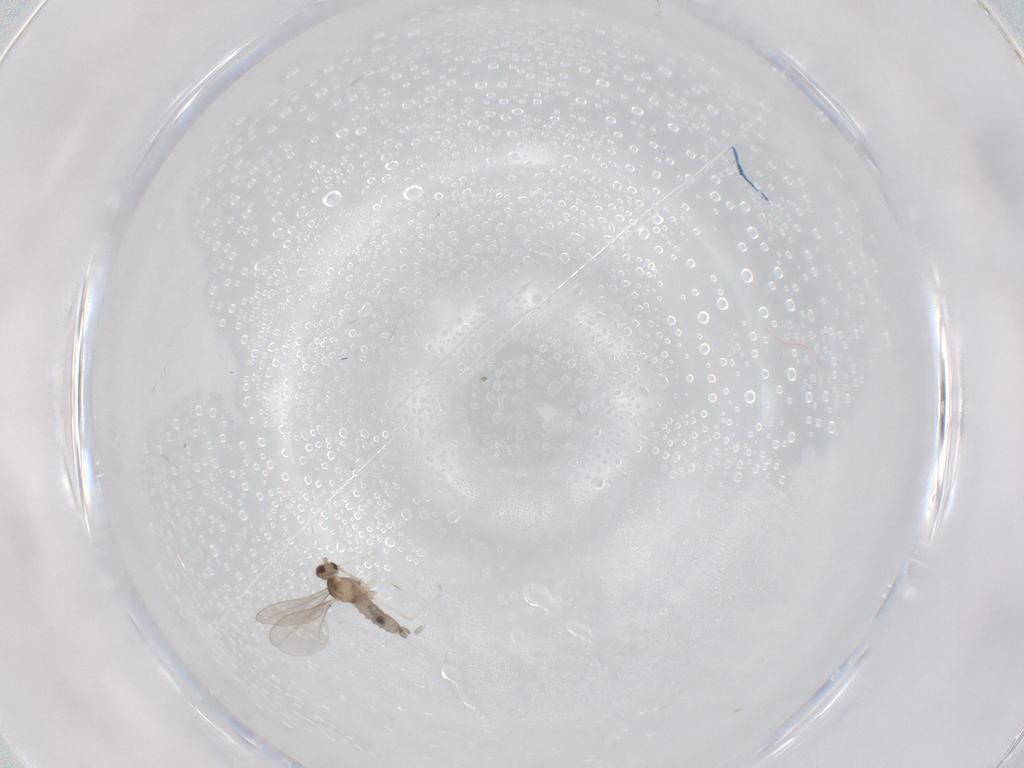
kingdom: Animalia
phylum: Arthropoda
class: Insecta
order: Diptera
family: Cecidomyiidae
